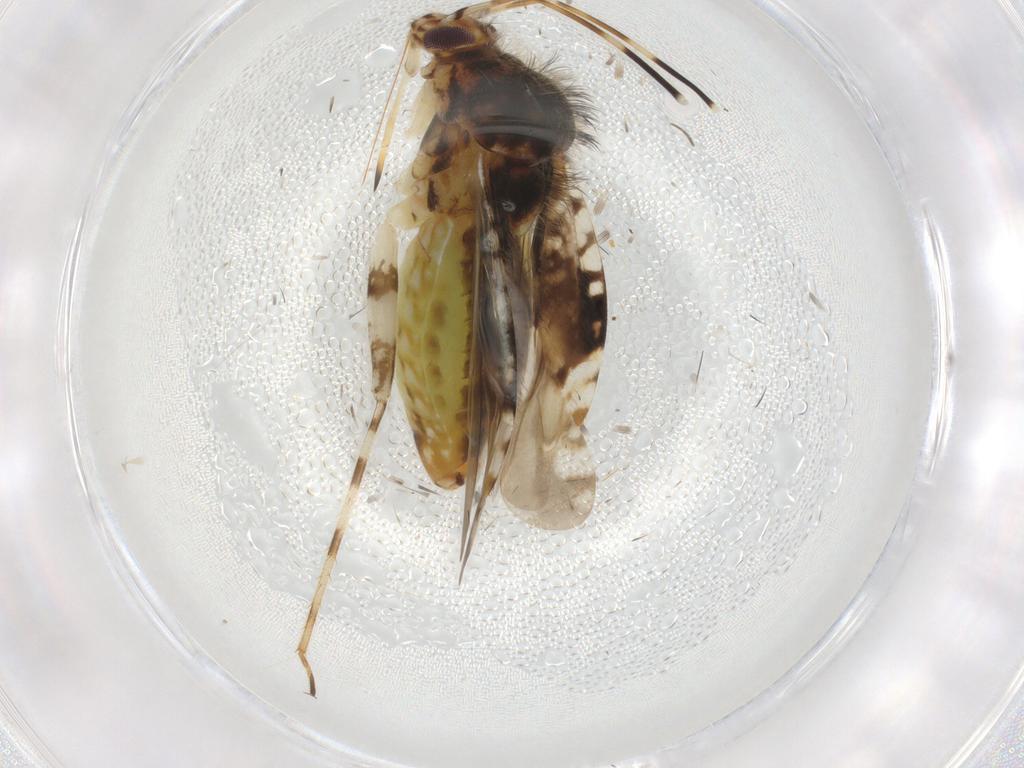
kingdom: Animalia
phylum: Arthropoda
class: Insecta
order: Hemiptera
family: Miridae
